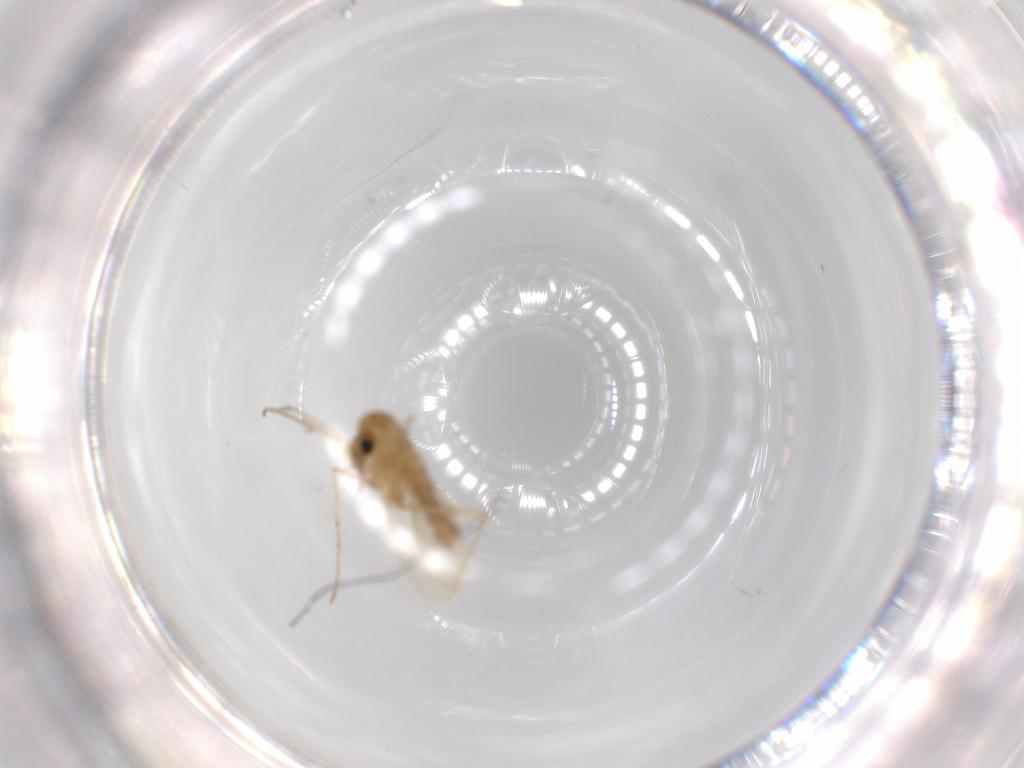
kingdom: Animalia
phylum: Arthropoda
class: Insecta
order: Diptera
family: Psychodidae
